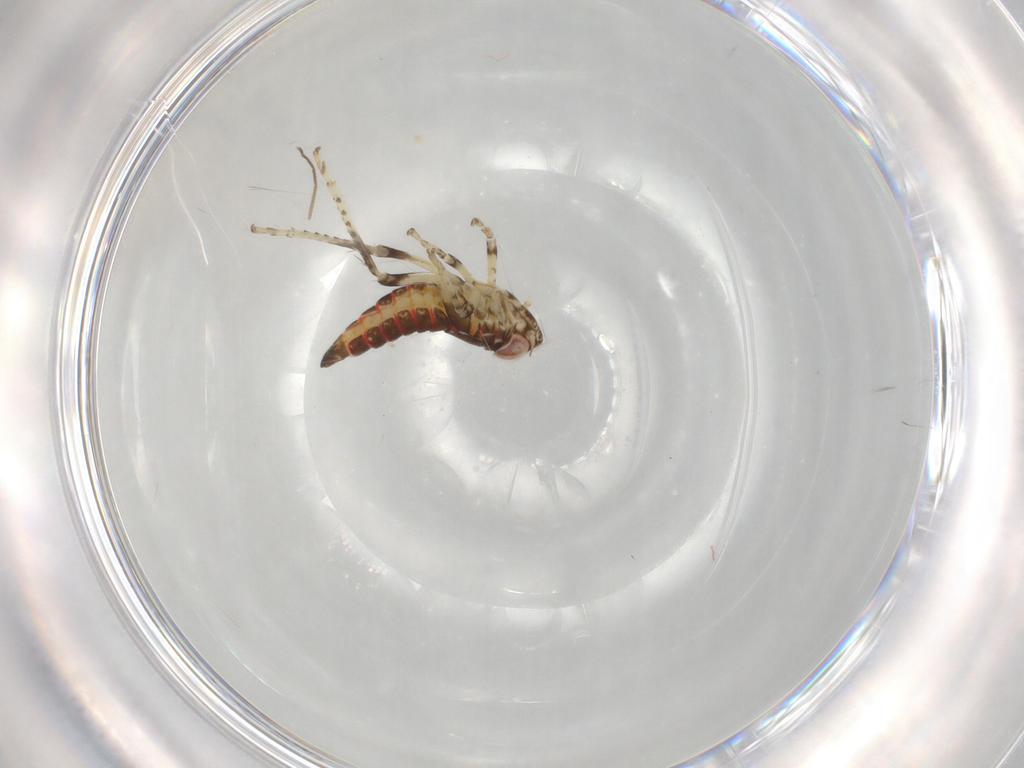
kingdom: Animalia
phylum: Arthropoda
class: Insecta
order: Hemiptera
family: Cicadellidae
